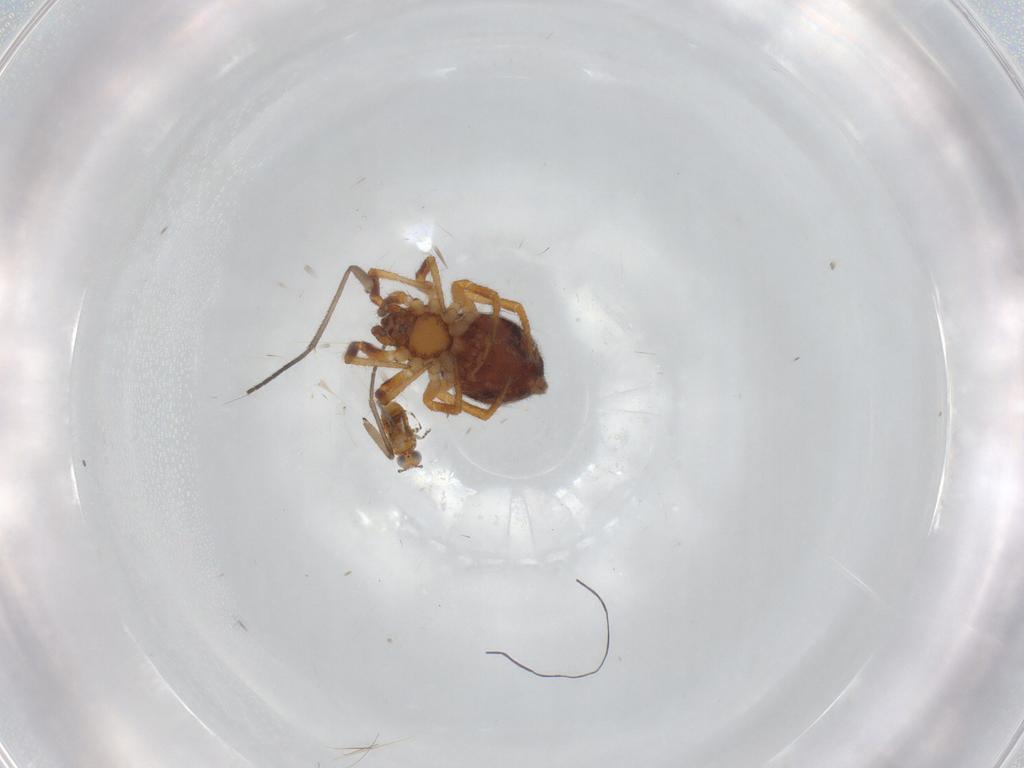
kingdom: Animalia
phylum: Arthropoda
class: Arachnida
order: Araneae
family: Theridiidae
